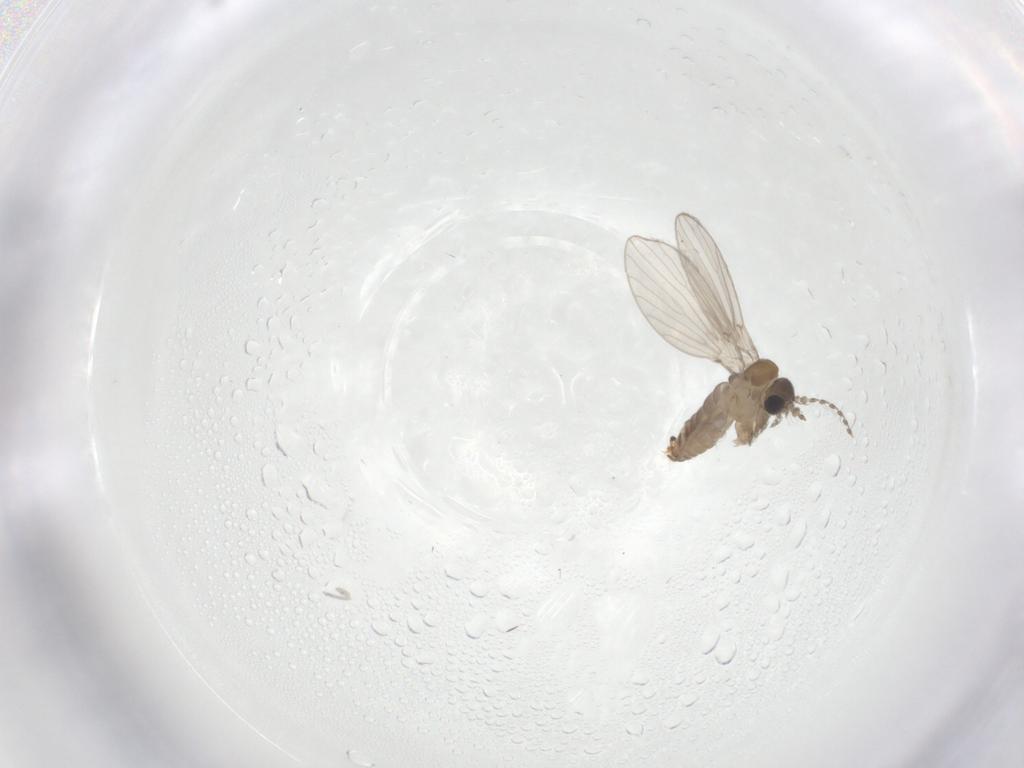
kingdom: Animalia
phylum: Arthropoda
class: Insecta
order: Diptera
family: Psychodidae
